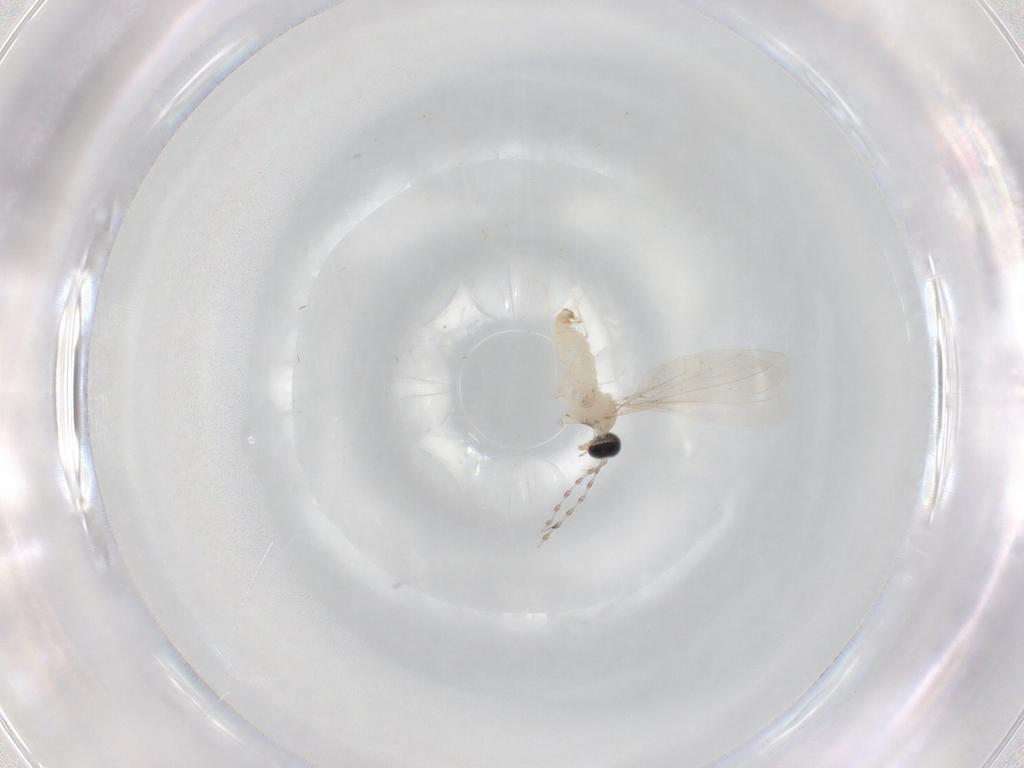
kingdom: Animalia
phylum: Arthropoda
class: Insecta
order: Diptera
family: Cecidomyiidae
